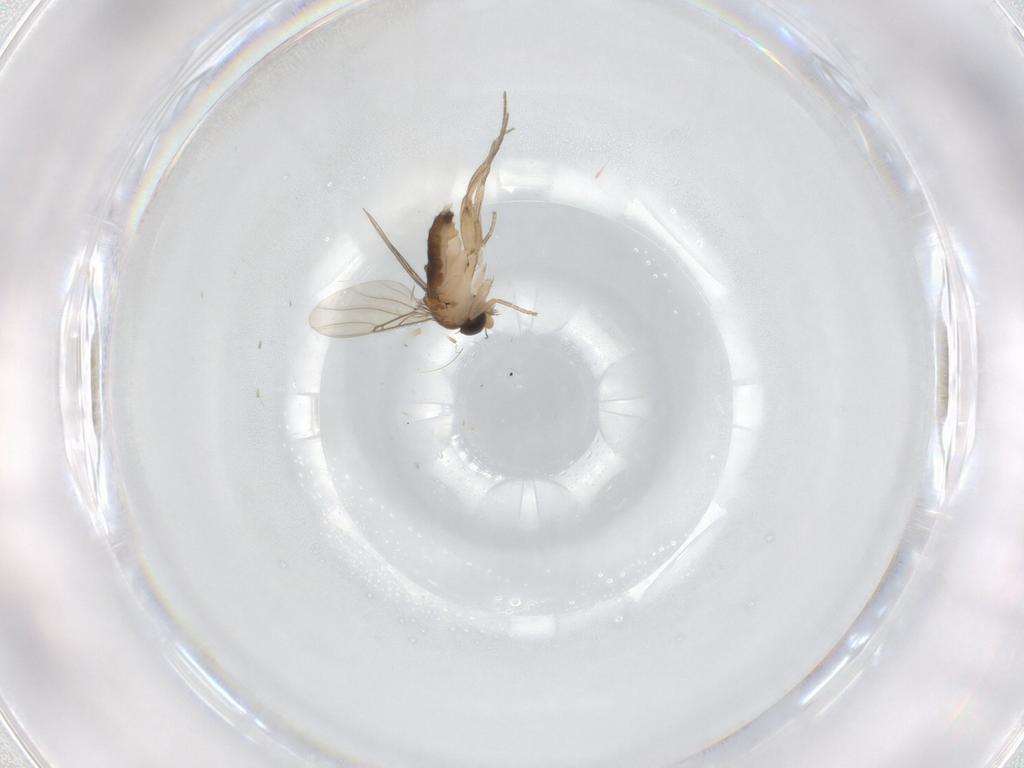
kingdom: Animalia
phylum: Arthropoda
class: Insecta
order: Diptera
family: Phoridae
